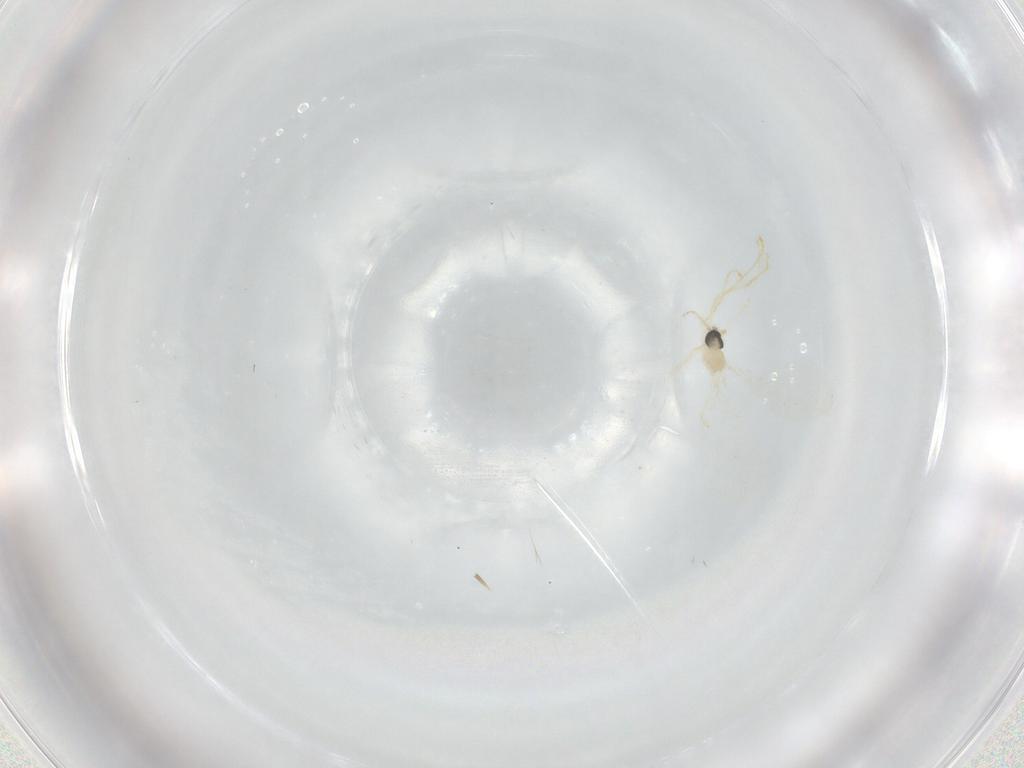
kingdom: Animalia
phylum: Arthropoda
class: Insecta
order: Diptera
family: Cecidomyiidae
